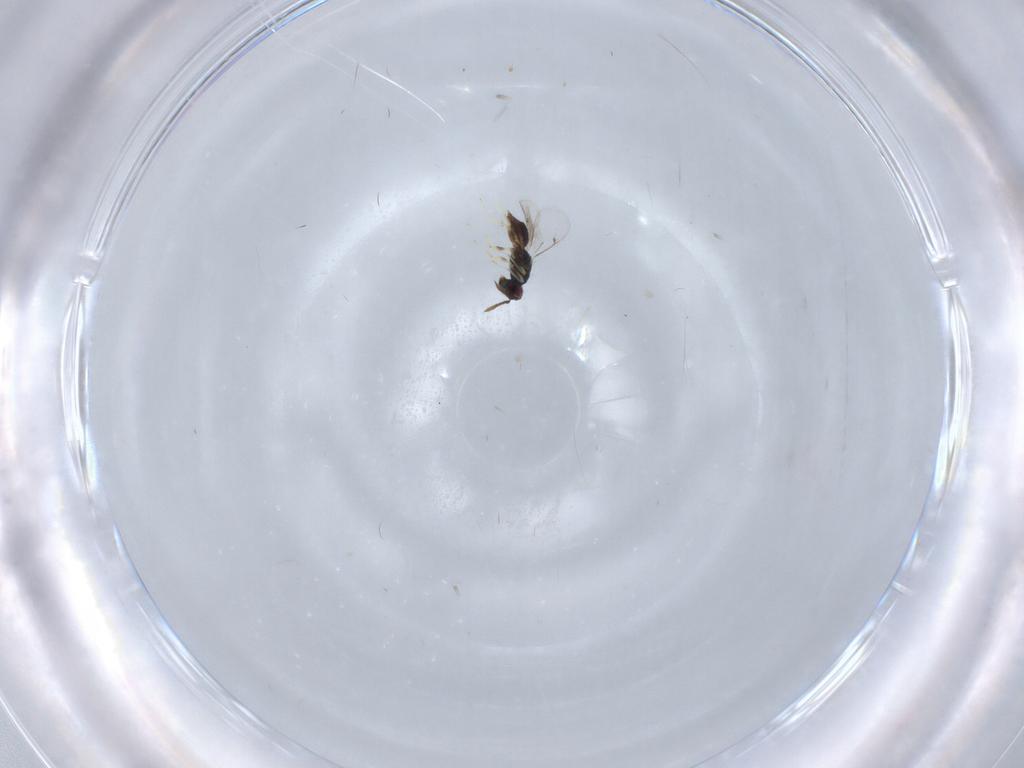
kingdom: Animalia
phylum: Arthropoda
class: Insecta
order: Hymenoptera
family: Eulophidae
